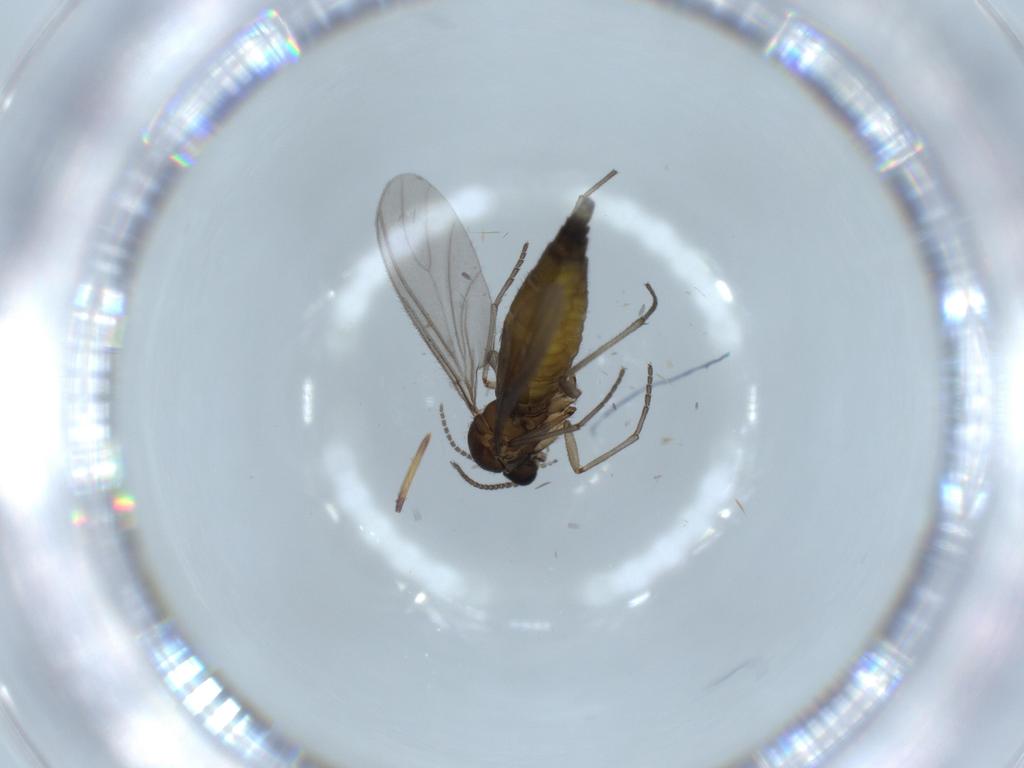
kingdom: Animalia
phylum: Arthropoda
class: Insecta
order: Diptera
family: Sciaridae
